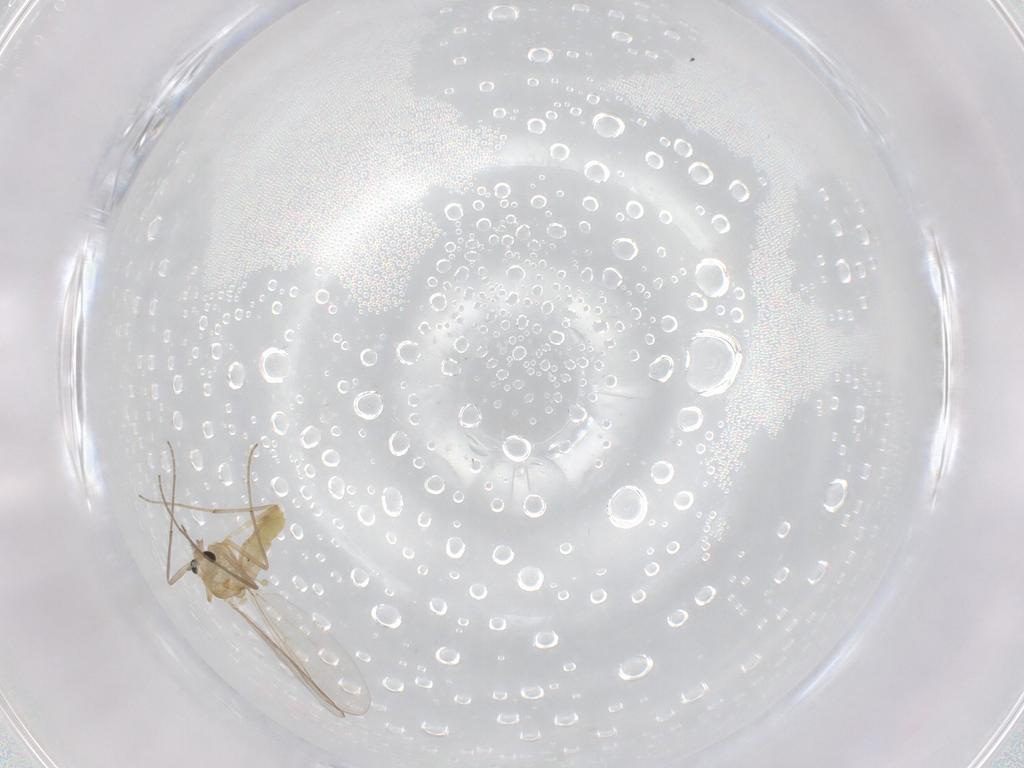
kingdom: Animalia
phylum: Arthropoda
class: Insecta
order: Diptera
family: Chironomidae
